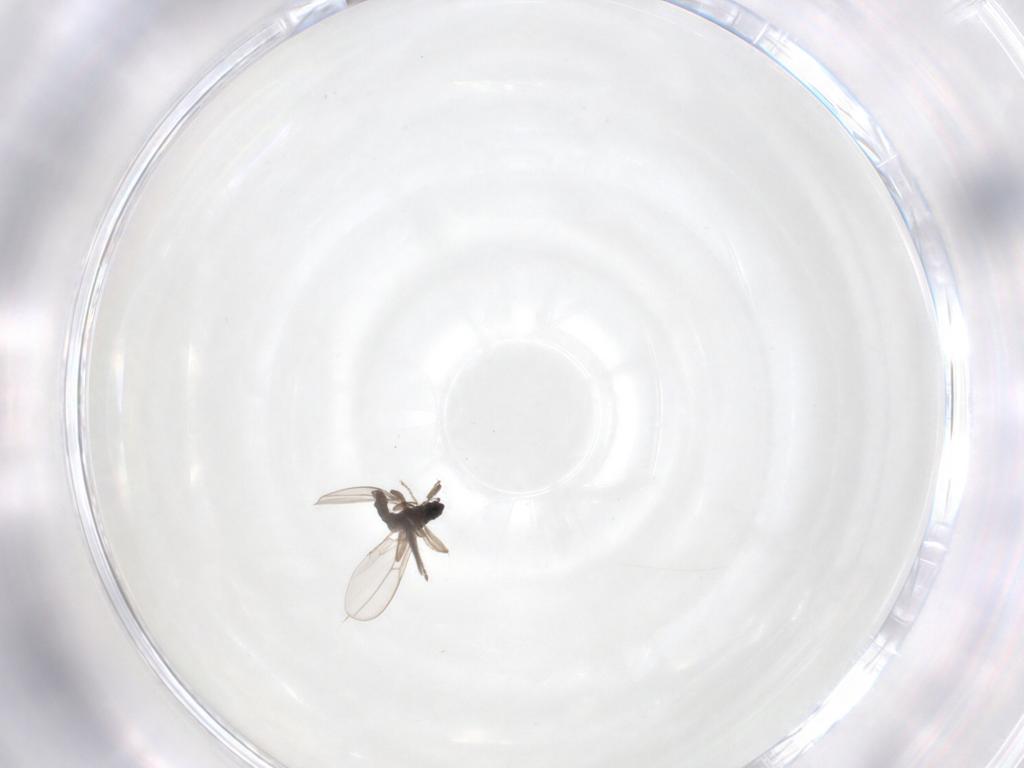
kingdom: Animalia
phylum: Arthropoda
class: Insecta
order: Diptera
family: Cecidomyiidae
